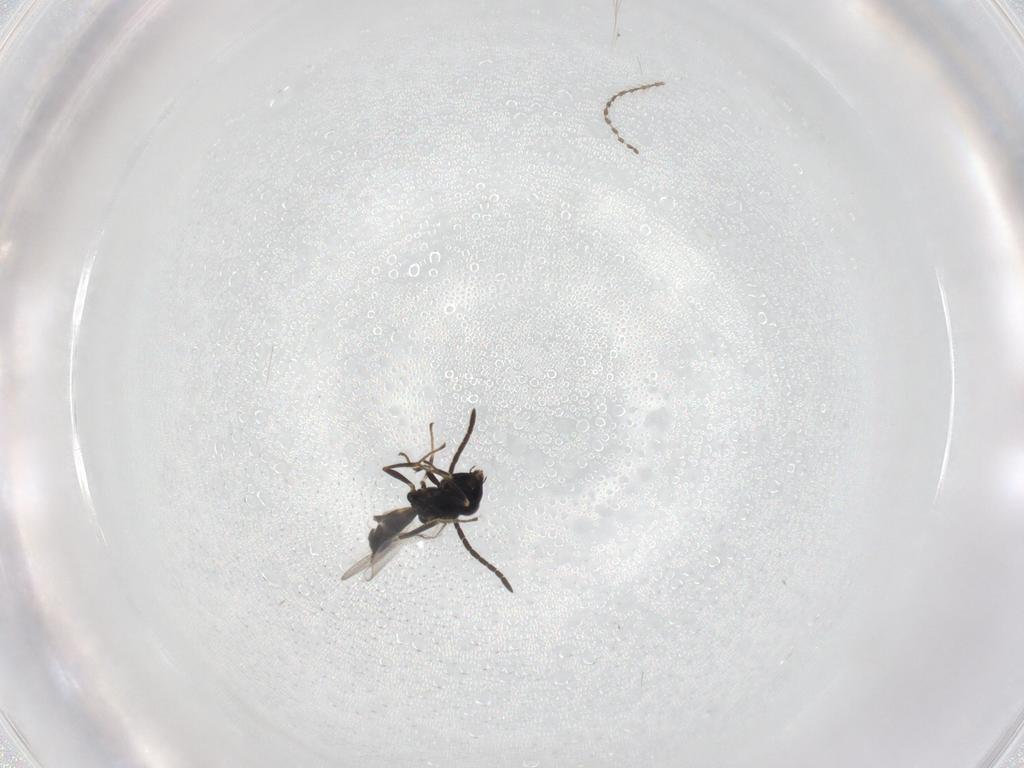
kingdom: Animalia
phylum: Arthropoda
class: Insecta
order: Hymenoptera
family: Eupelmidae
